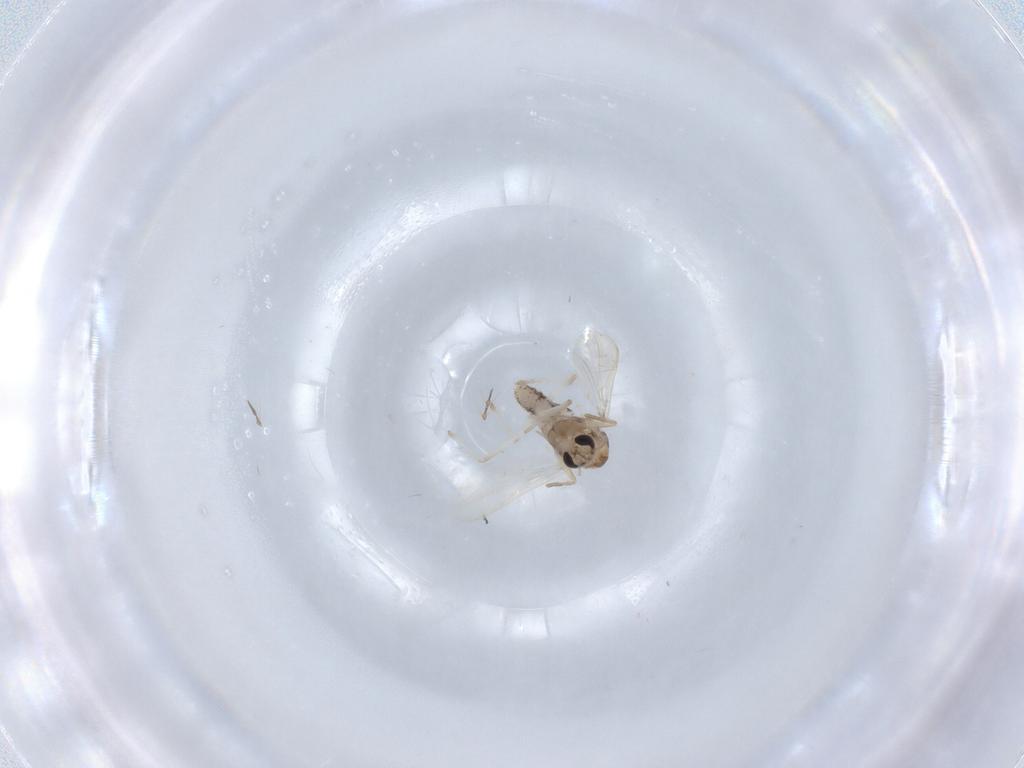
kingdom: Animalia
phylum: Arthropoda
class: Insecta
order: Diptera
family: Chironomidae
